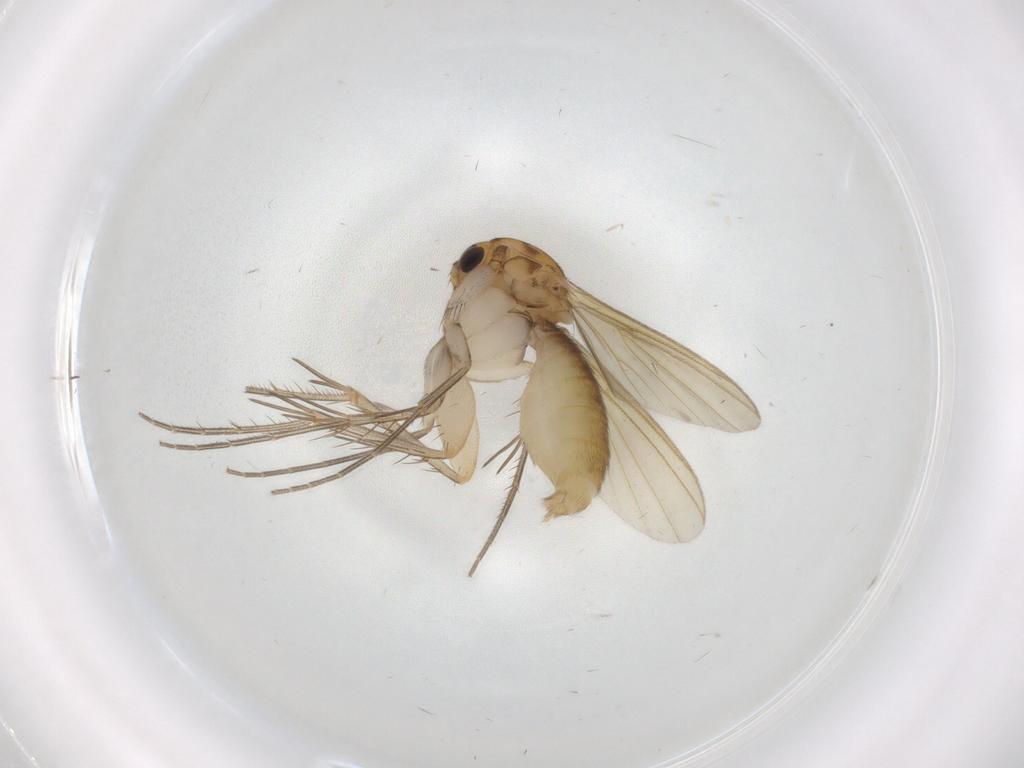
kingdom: Animalia
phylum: Arthropoda
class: Insecta
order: Diptera
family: Mycetophilidae
